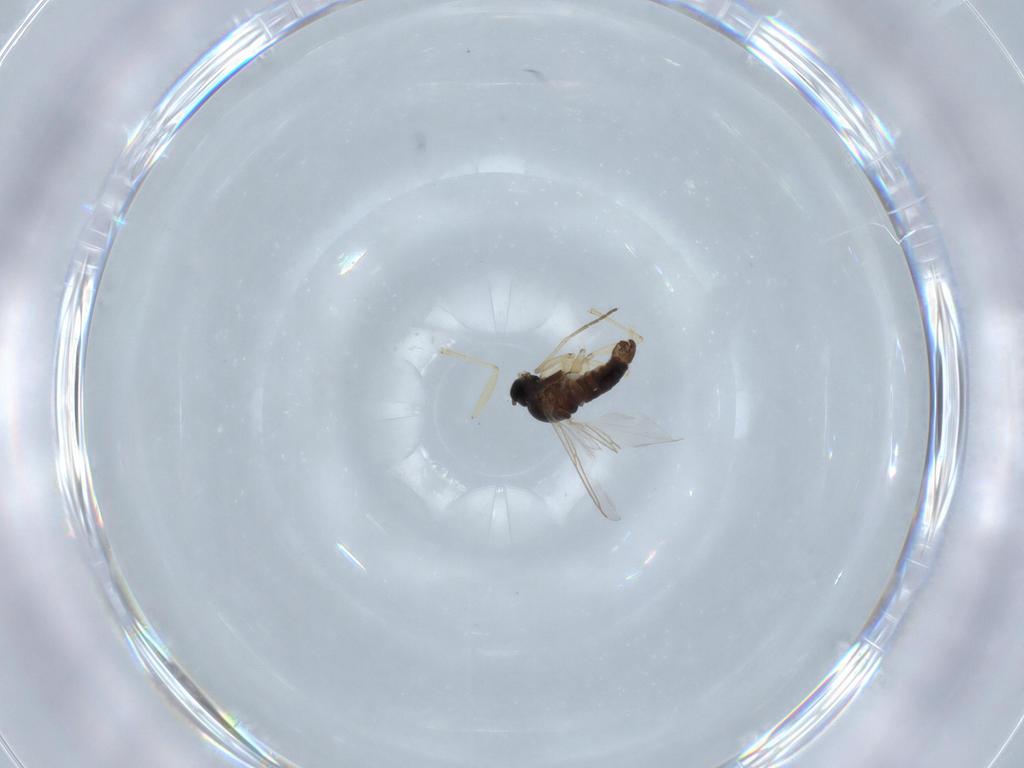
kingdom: Animalia
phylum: Arthropoda
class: Insecta
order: Diptera
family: Sciaridae
